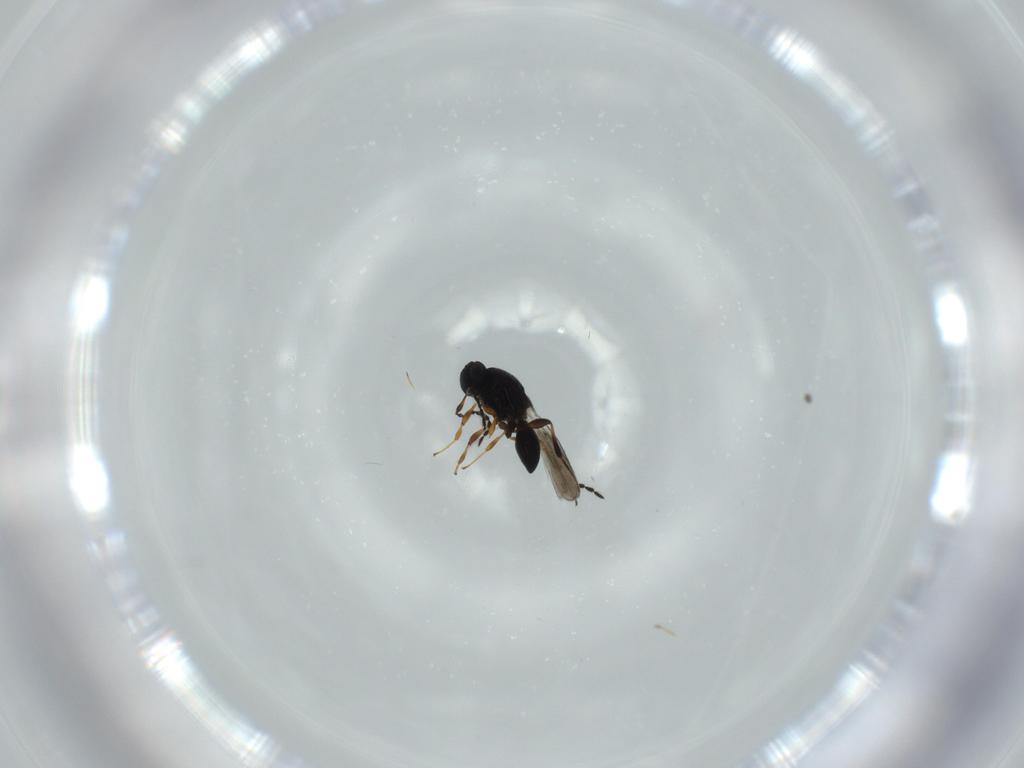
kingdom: Animalia
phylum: Arthropoda
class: Insecta
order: Hymenoptera
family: Platygastridae
